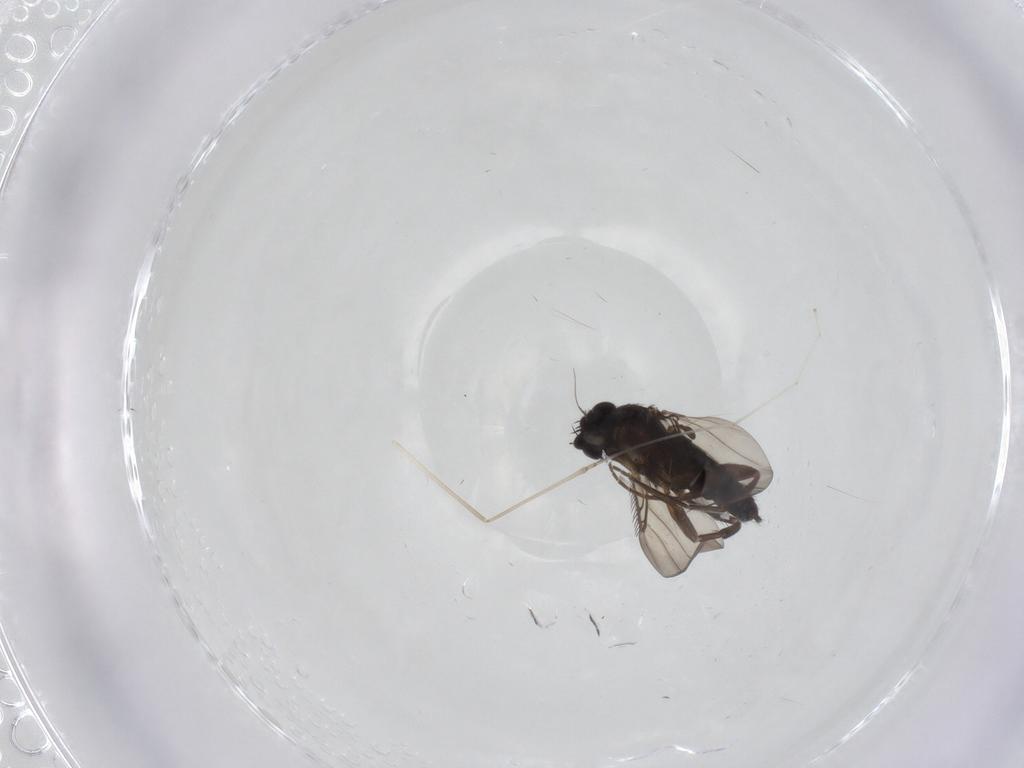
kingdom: Animalia
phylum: Arthropoda
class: Insecta
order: Diptera
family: Phoridae
